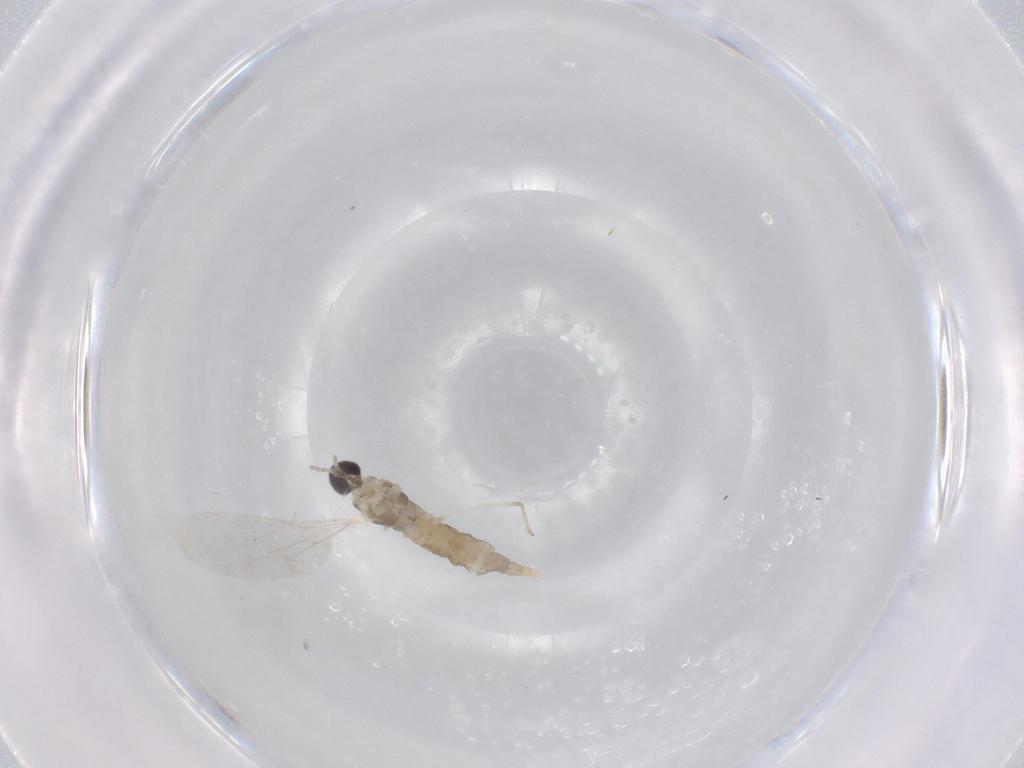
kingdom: Animalia
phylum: Arthropoda
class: Insecta
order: Diptera
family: Cecidomyiidae
